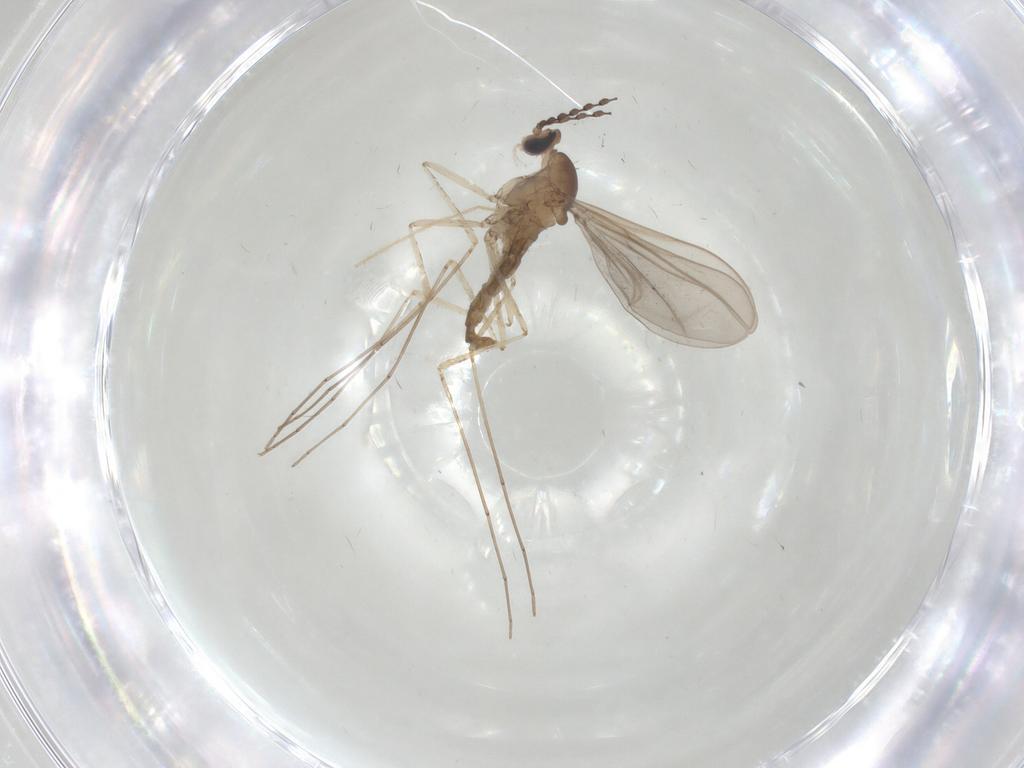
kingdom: Animalia
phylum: Arthropoda
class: Insecta
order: Diptera
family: Cecidomyiidae
